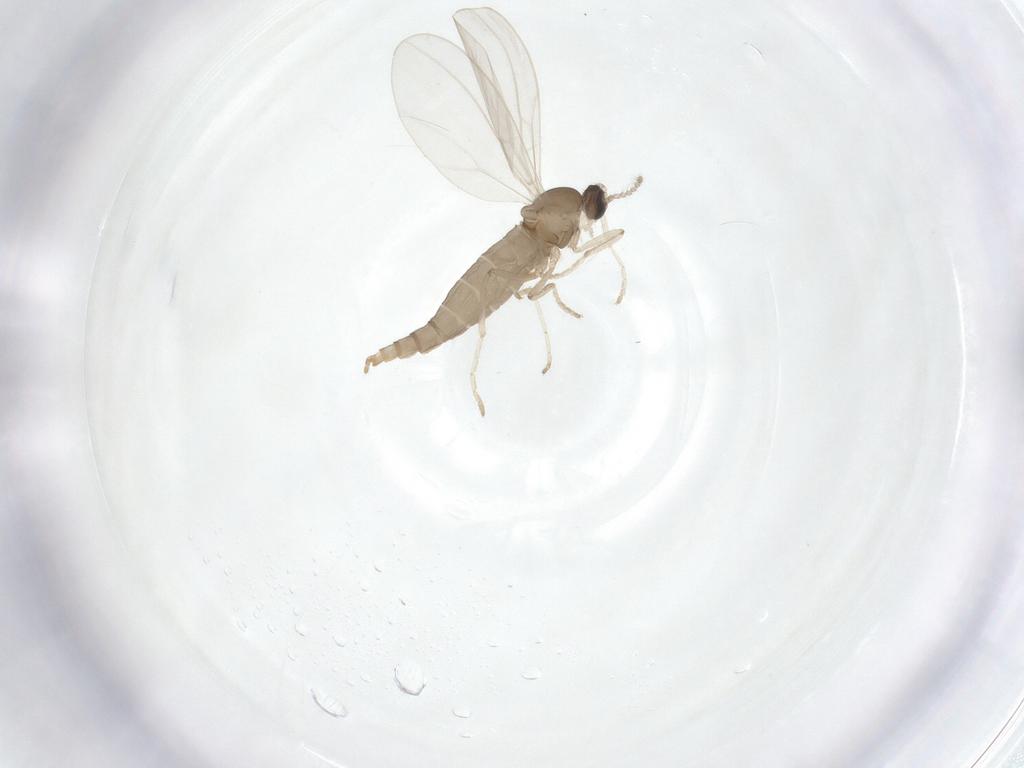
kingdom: Animalia
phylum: Arthropoda
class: Insecta
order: Diptera
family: Cecidomyiidae
